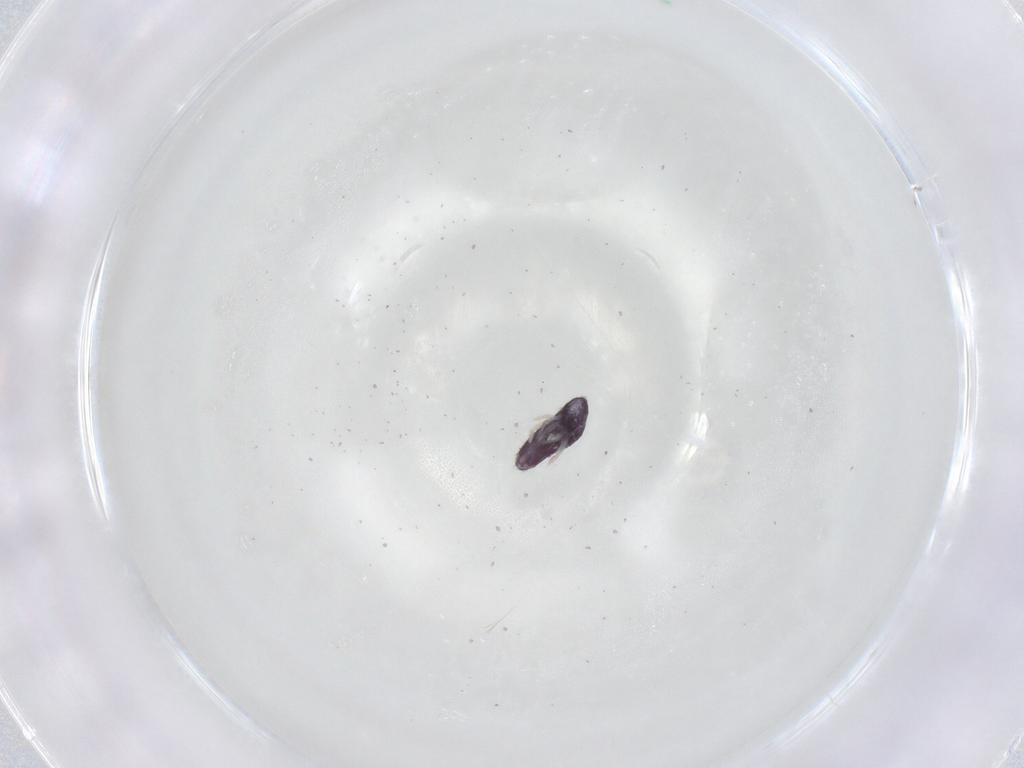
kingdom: Animalia
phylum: Arthropoda
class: Collembola
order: Entomobryomorpha
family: Entomobryidae
